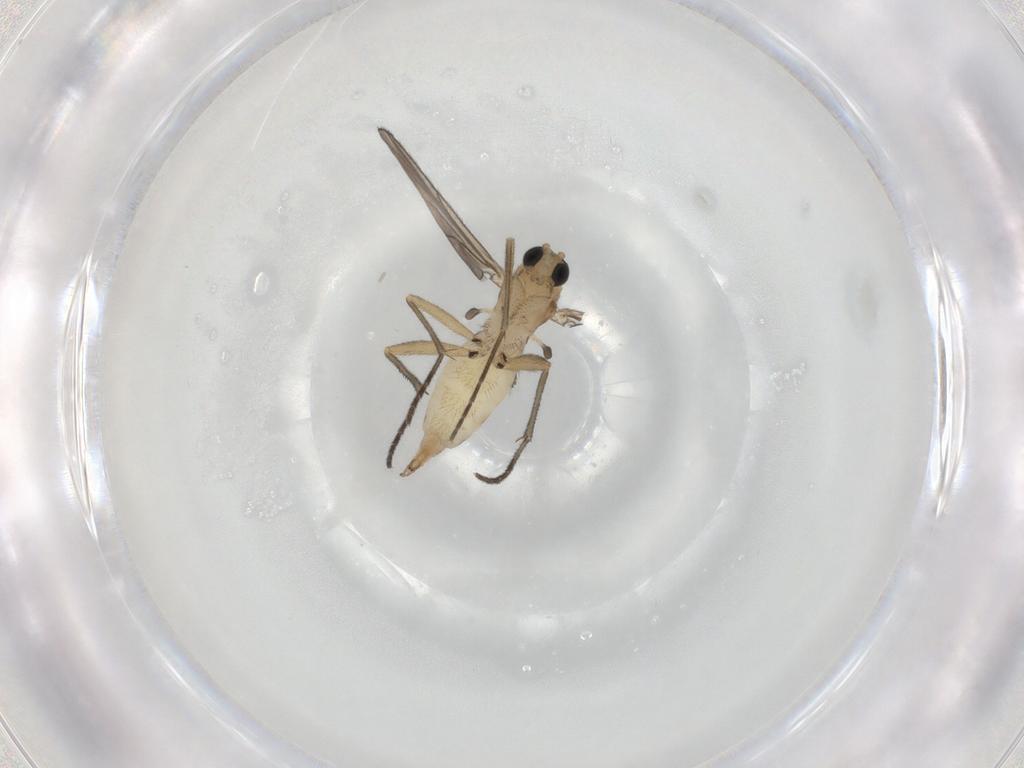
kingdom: Animalia
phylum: Arthropoda
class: Insecta
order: Diptera
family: Sciaridae
